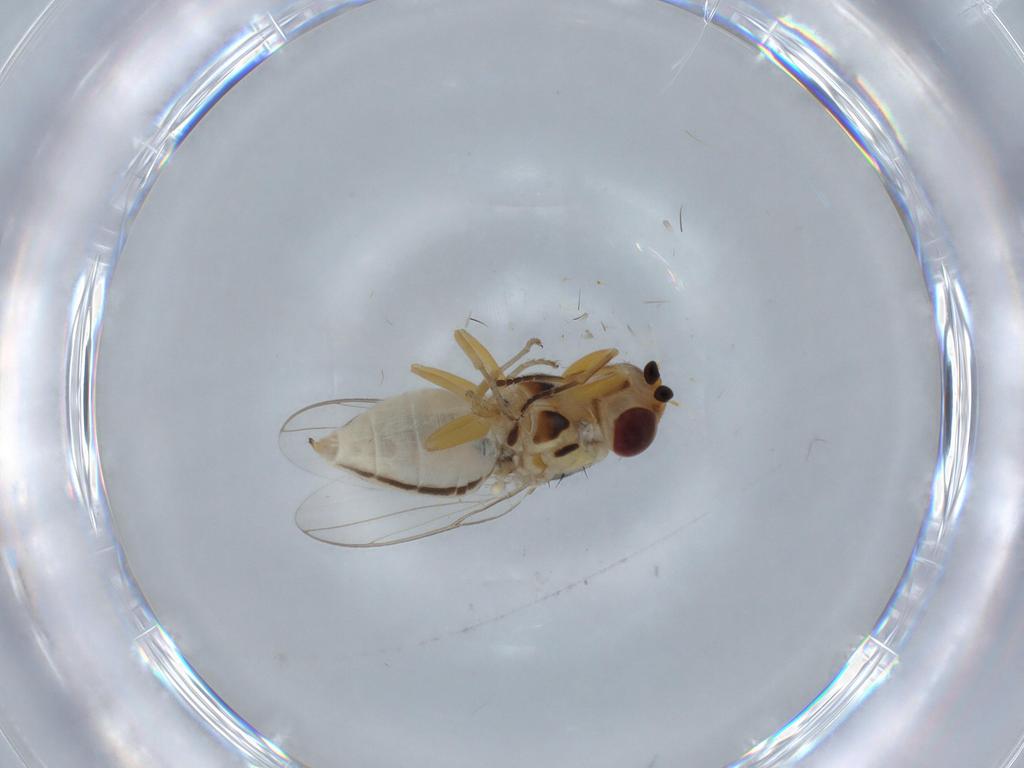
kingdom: Animalia
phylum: Arthropoda
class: Insecta
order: Diptera
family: Chloropidae
